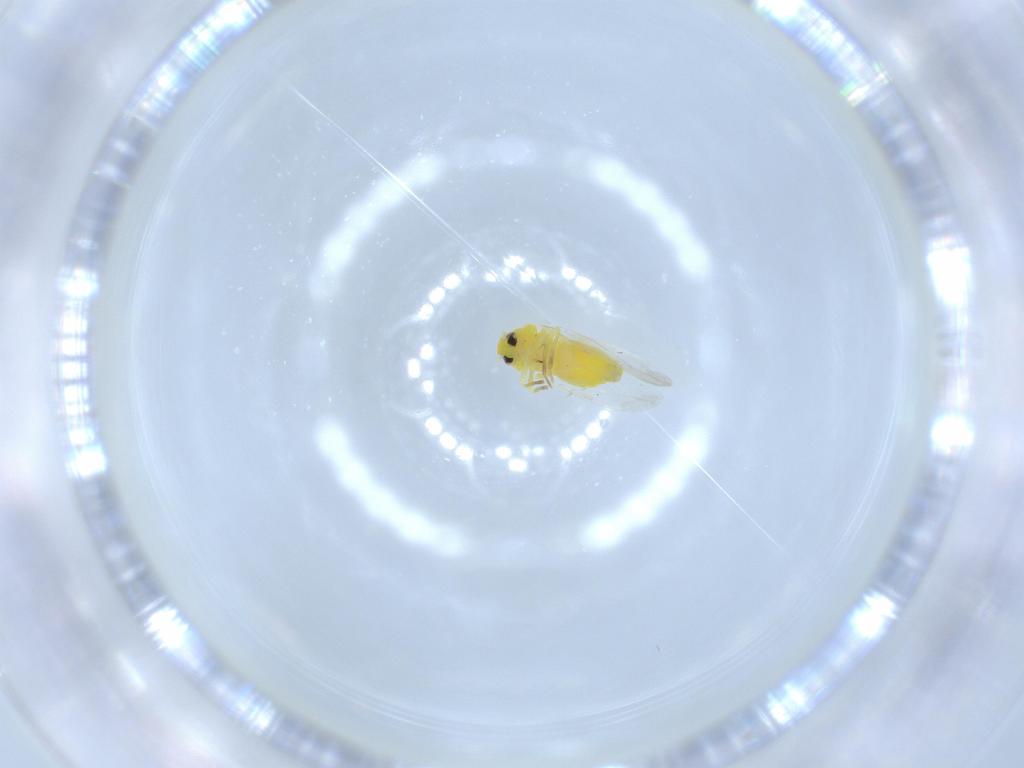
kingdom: Animalia
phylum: Arthropoda
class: Insecta
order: Hemiptera
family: Aleyrodidae
